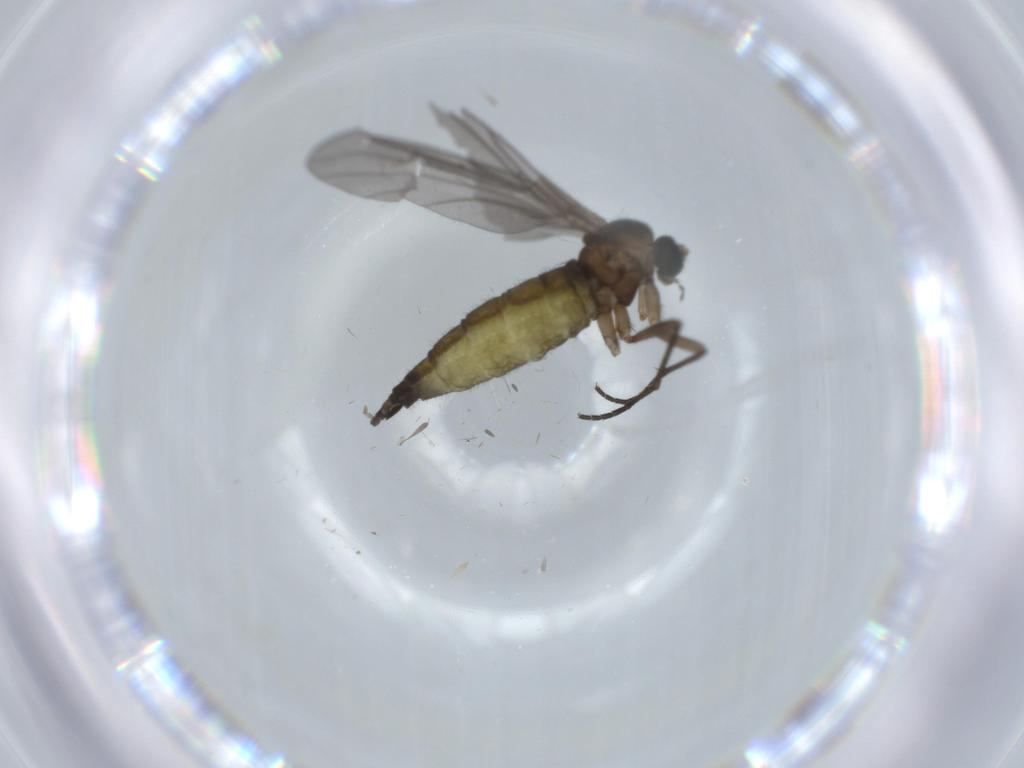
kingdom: Animalia
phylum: Arthropoda
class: Insecta
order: Diptera
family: Sciaridae
